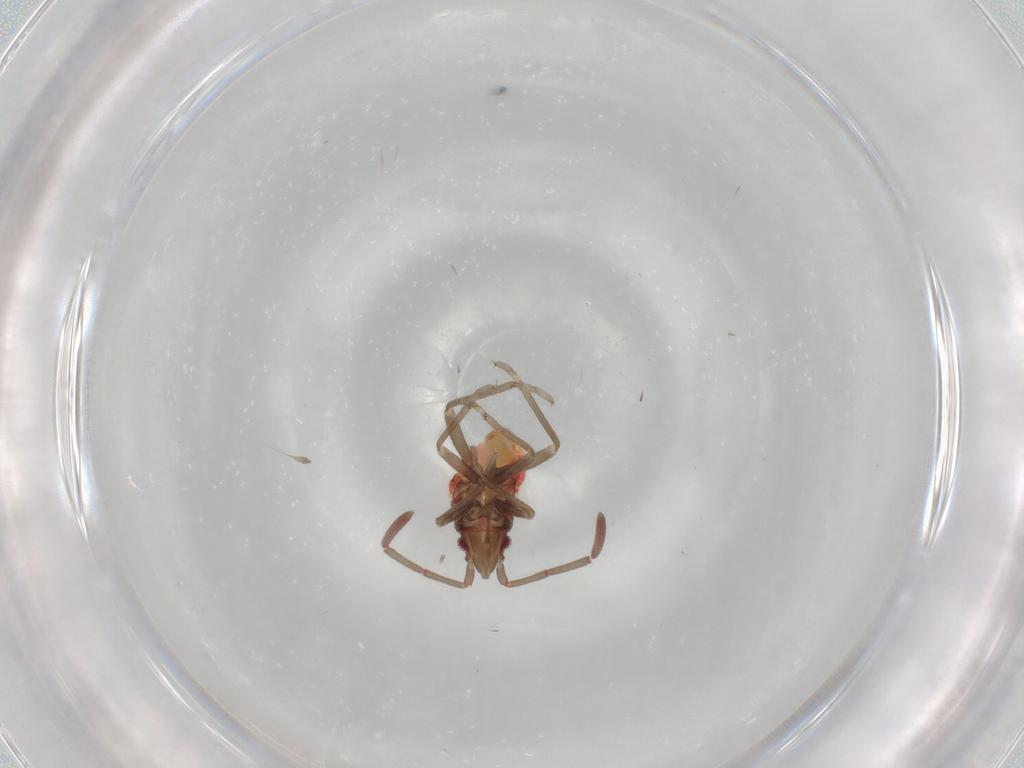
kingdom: Animalia
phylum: Arthropoda
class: Insecta
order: Hemiptera
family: Rhyparochromidae
